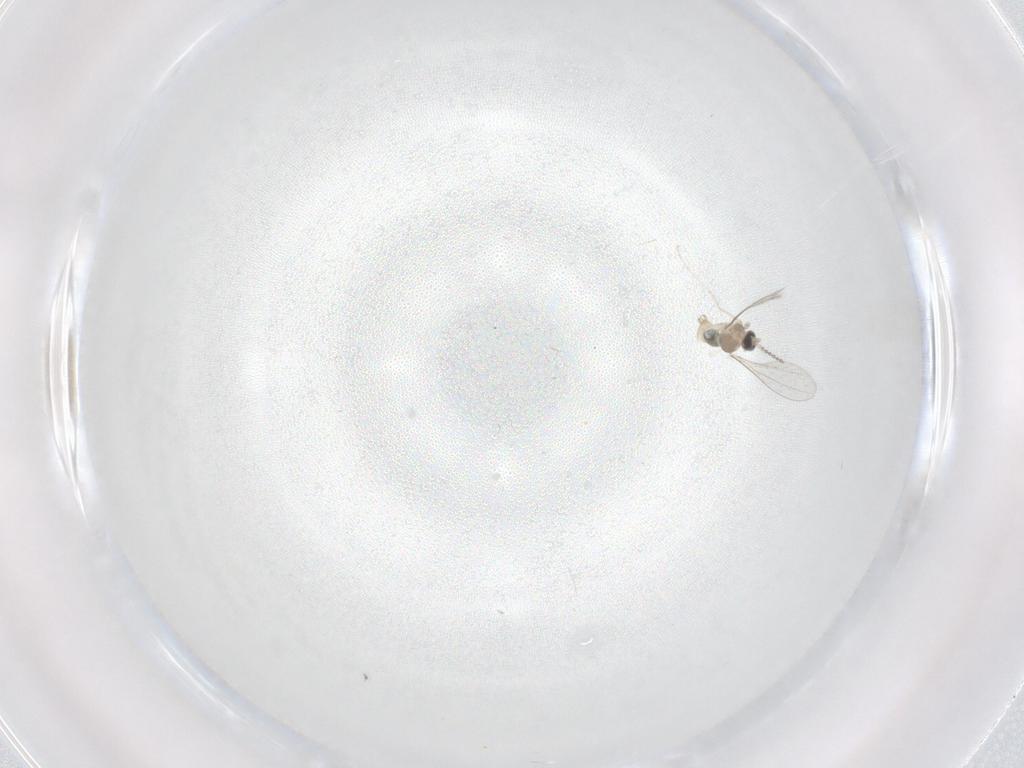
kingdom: Animalia
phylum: Arthropoda
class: Insecta
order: Diptera
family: Cecidomyiidae
